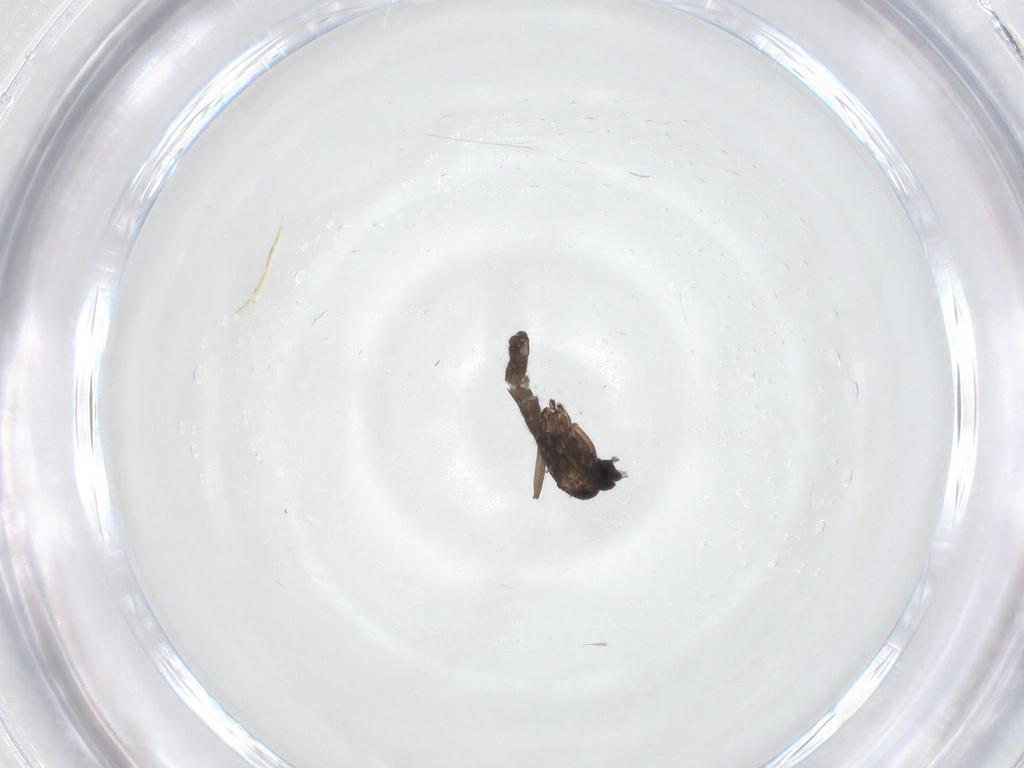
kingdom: Animalia
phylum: Arthropoda
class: Insecta
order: Diptera
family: Sciaridae
